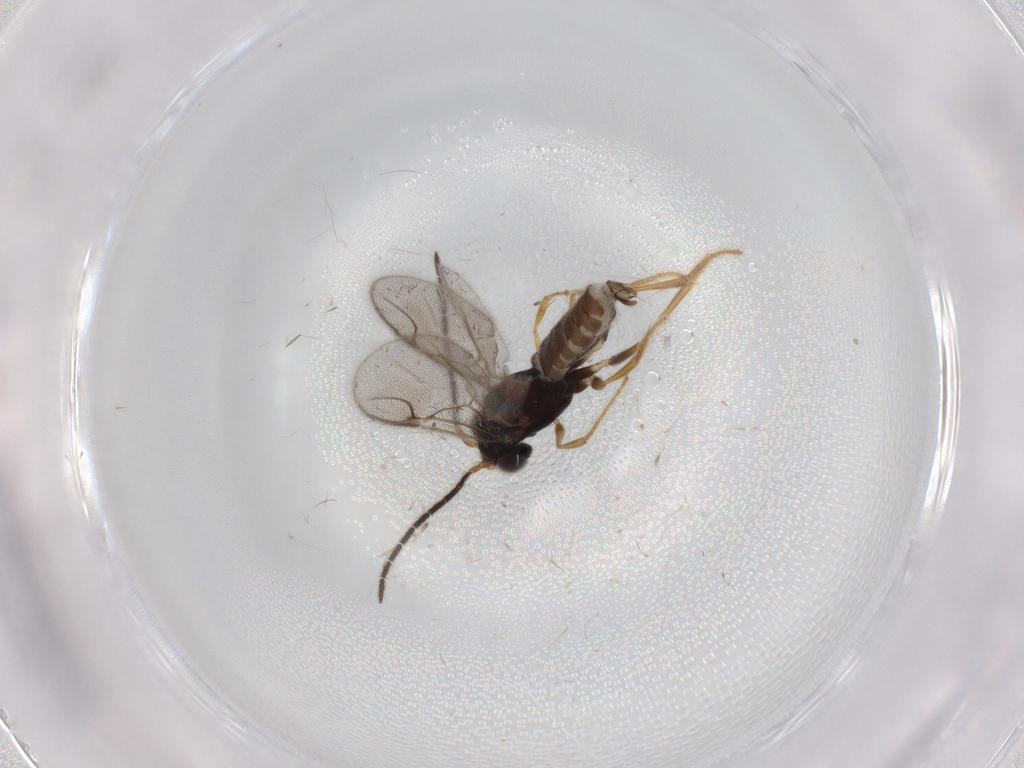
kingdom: Animalia
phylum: Arthropoda
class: Insecta
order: Hymenoptera
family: Dryinidae
